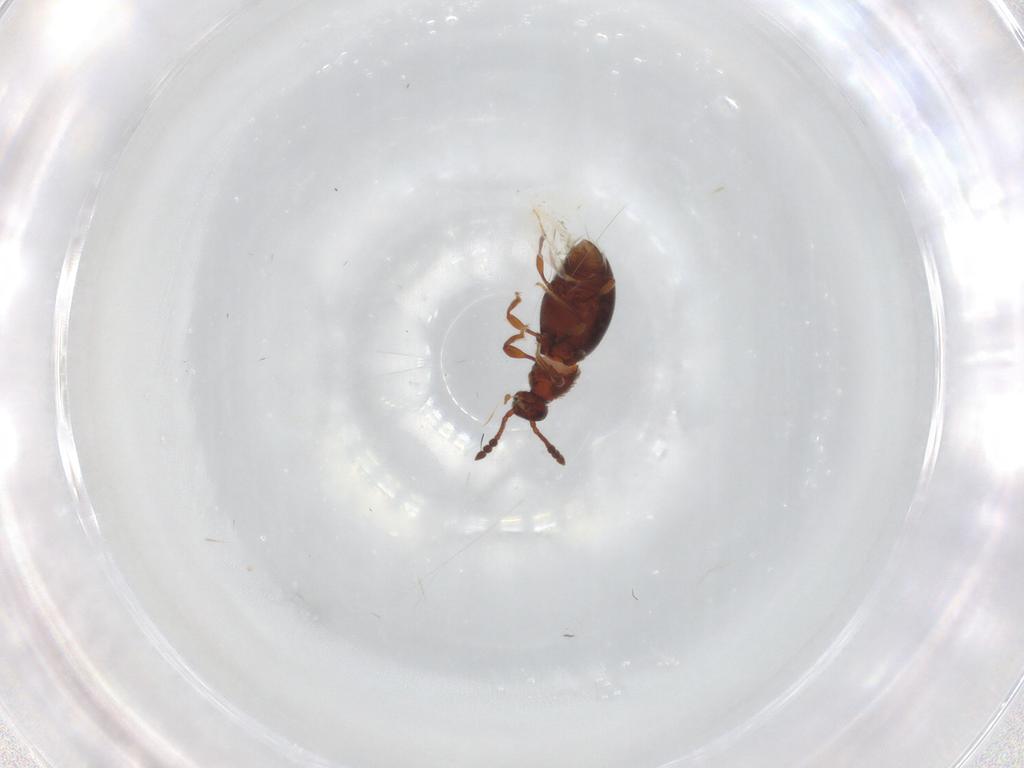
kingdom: Animalia
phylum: Arthropoda
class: Insecta
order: Coleoptera
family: Staphylinidae
